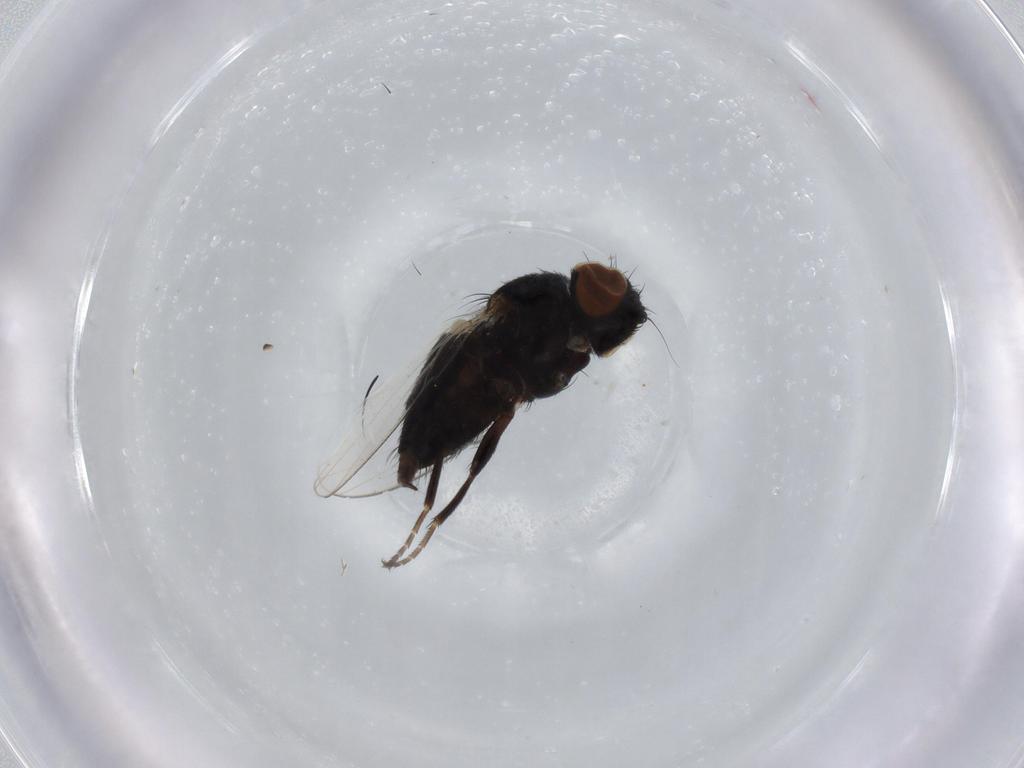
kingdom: Animalia
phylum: Arthropoda
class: Insecta
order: Diptera
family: Milichiidae
